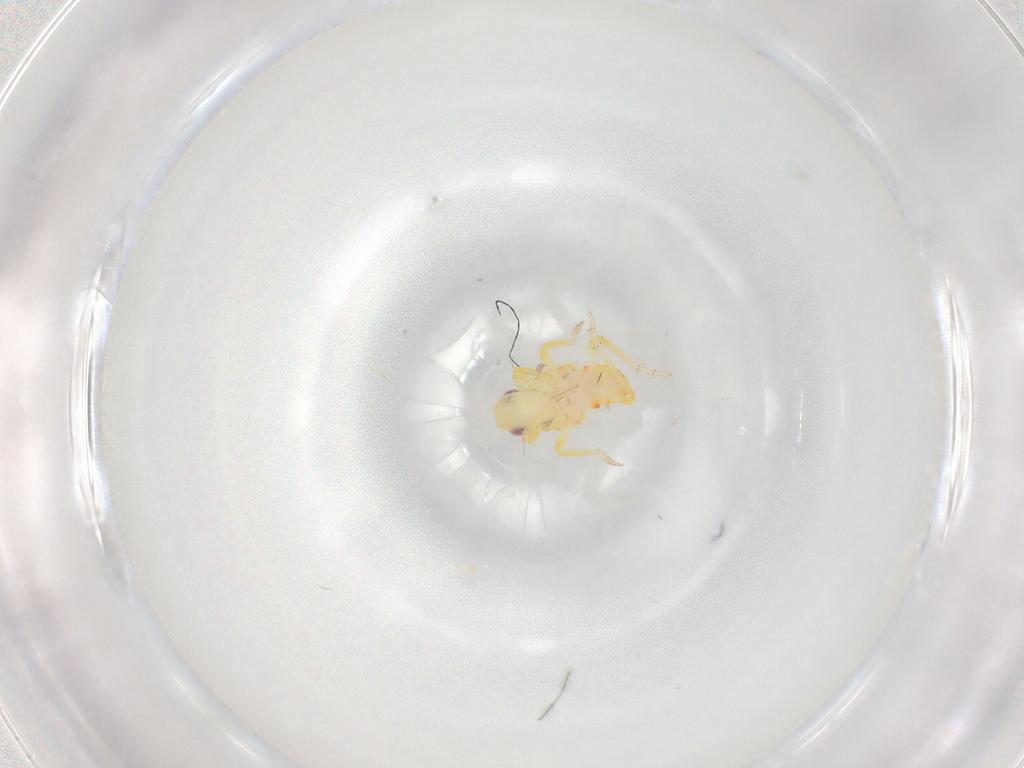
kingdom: Animalia
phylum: Arthropoda
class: Insecta
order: Hemiptera
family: Tropiduchidae
